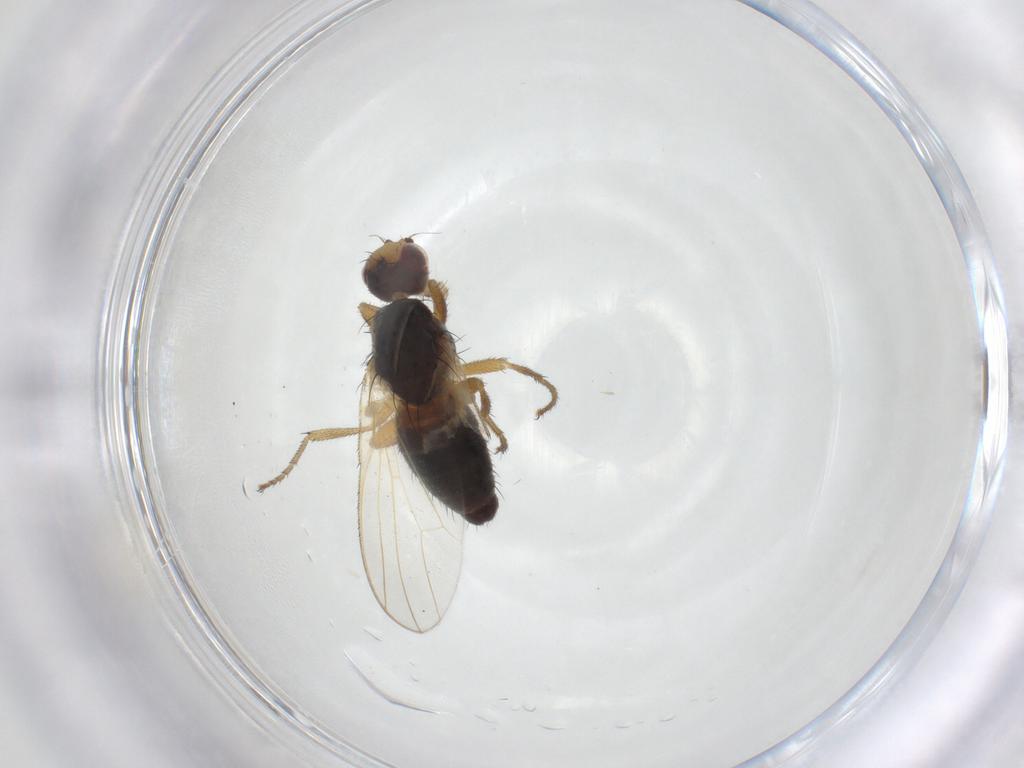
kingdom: Animalia
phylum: Arthropoda
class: Insecta
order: Diptera
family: Heleomyzidae
